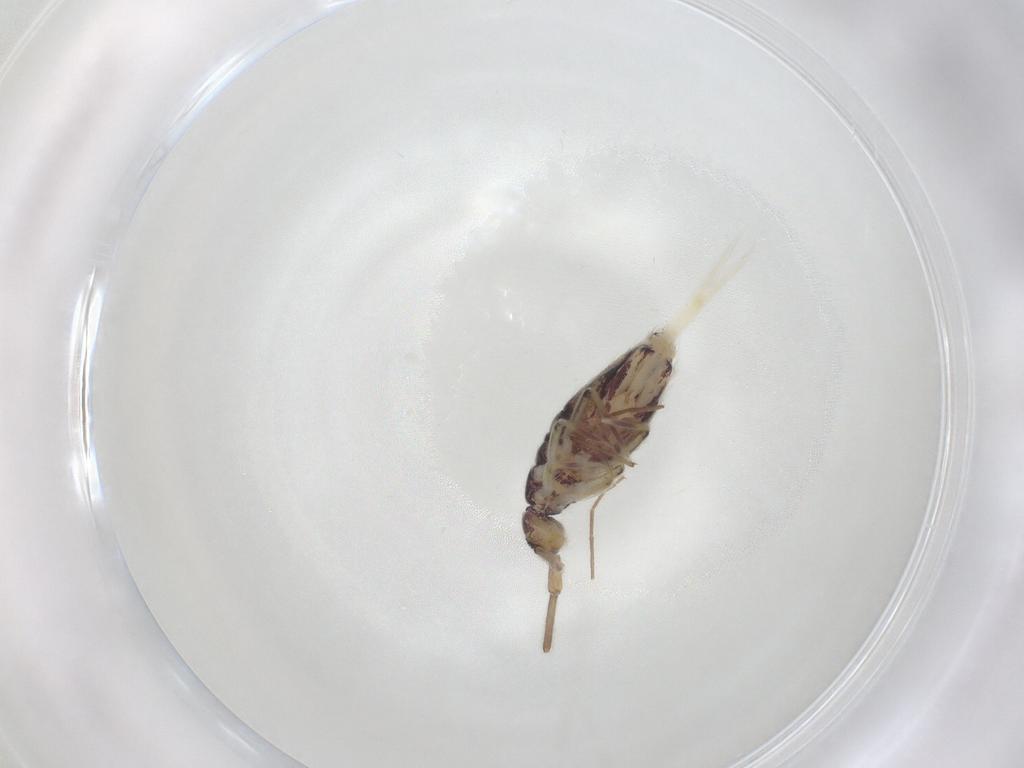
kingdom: Animalia
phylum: Arthropoda
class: Collembola
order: Entomobryomorpha
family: Entomobryidae
